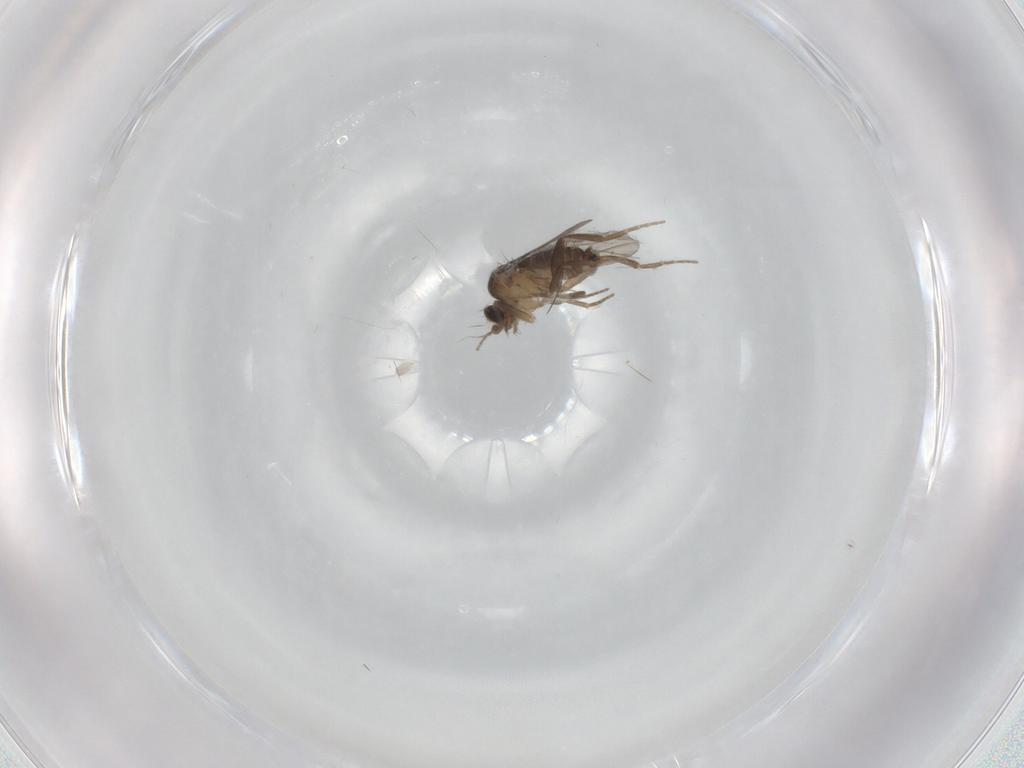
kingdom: Animalia
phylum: Arthropoda
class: Insecta
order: Diptera
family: Phoridae
